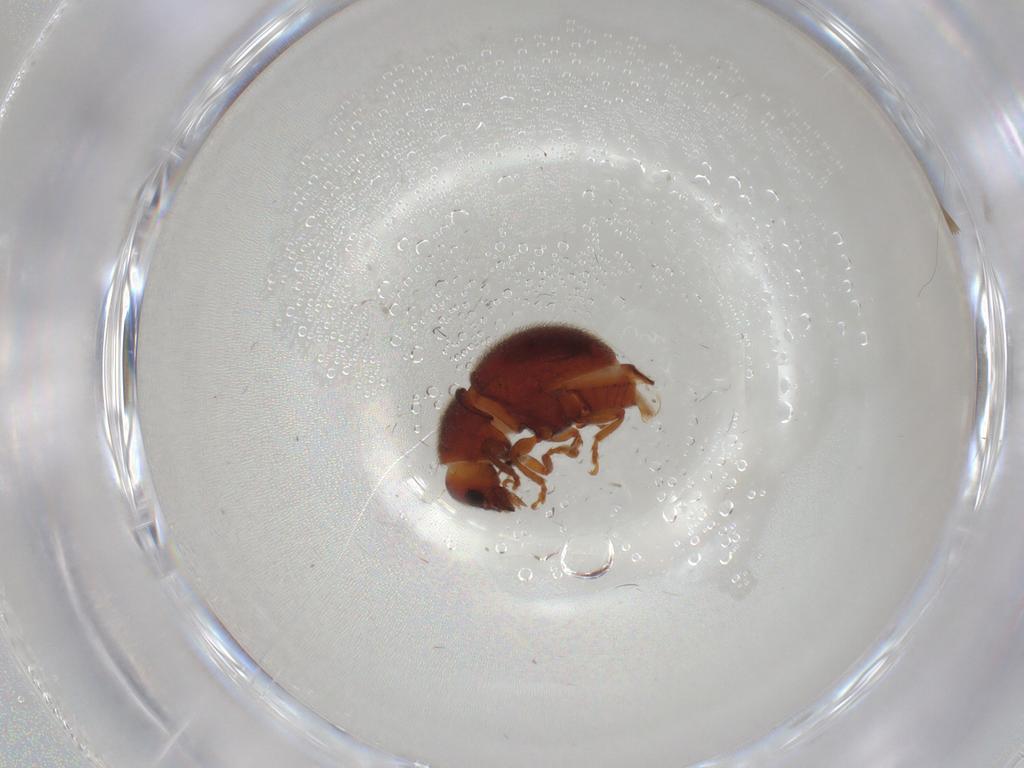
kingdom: Animalia
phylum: Arthropoda
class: Insecta
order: Coleoptera
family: Anthribidae
